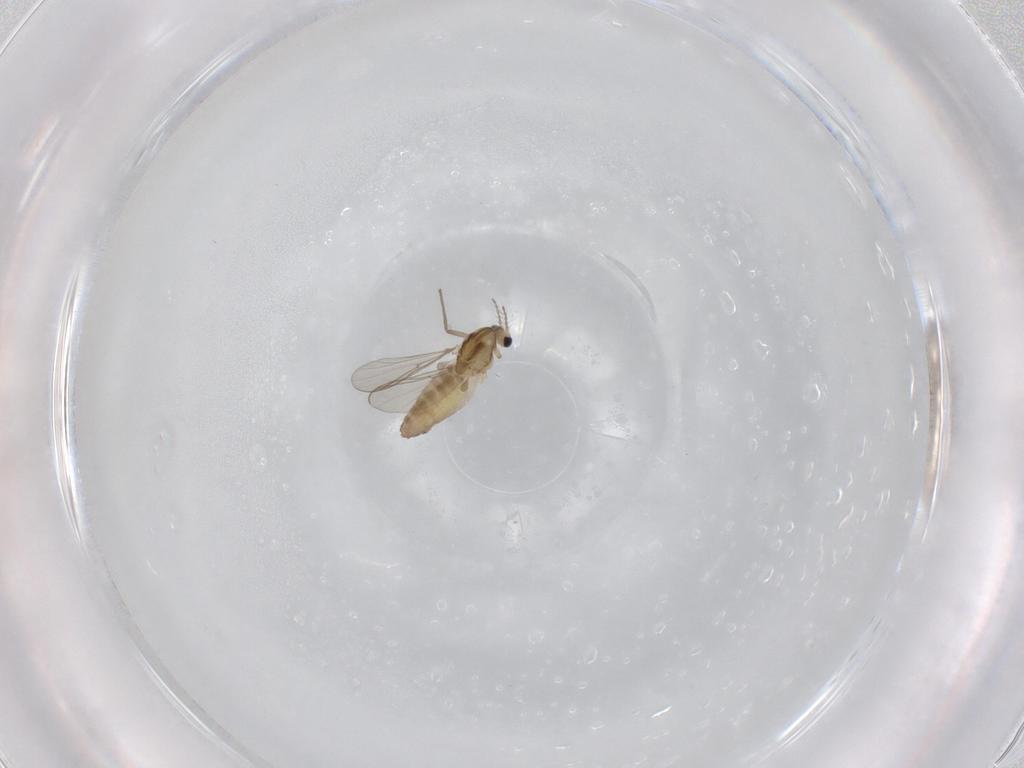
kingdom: Animalia
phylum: Arthropoda
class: Insecta
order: Diptera
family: Chironomidae
